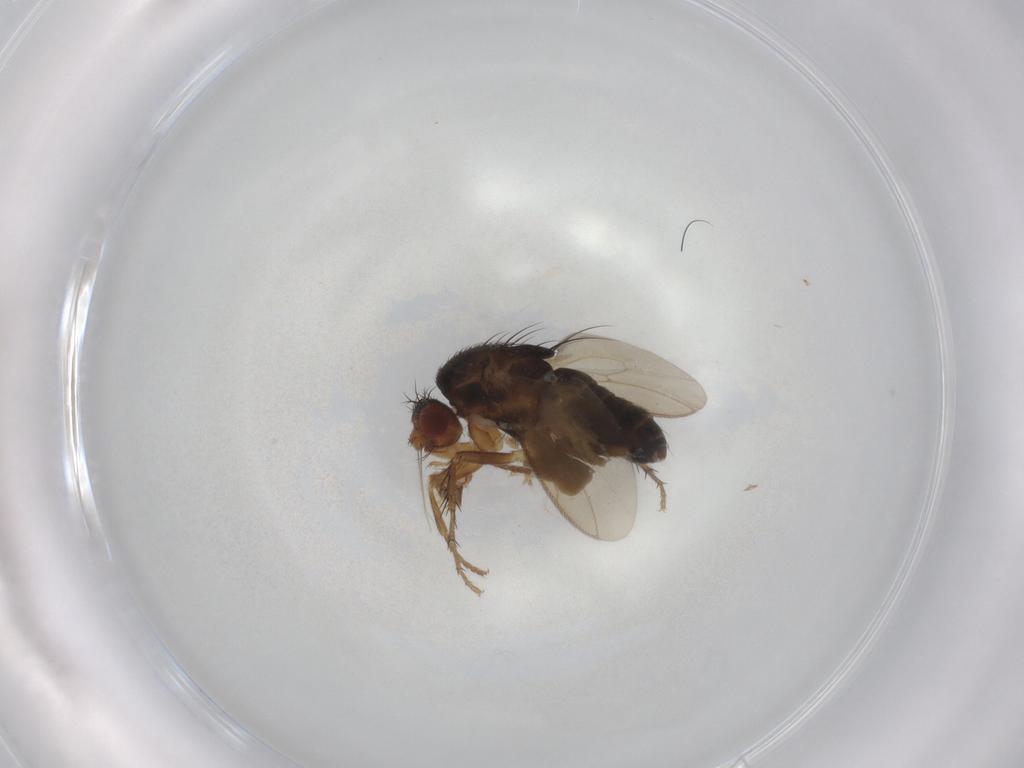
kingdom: Animalia
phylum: Arthropoda
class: Insecta
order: Diptera
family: Sphaeroceridae
